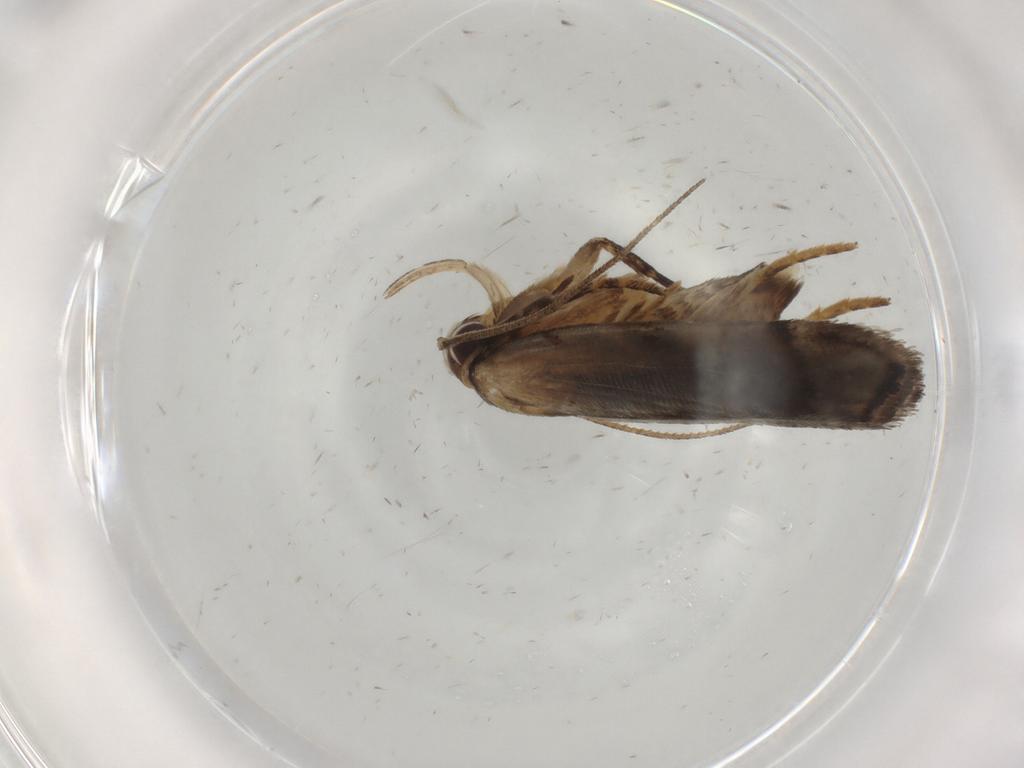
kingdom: Animalia
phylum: Arthropoda
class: Insecta
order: Lepidoptera
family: Gelechiidae
